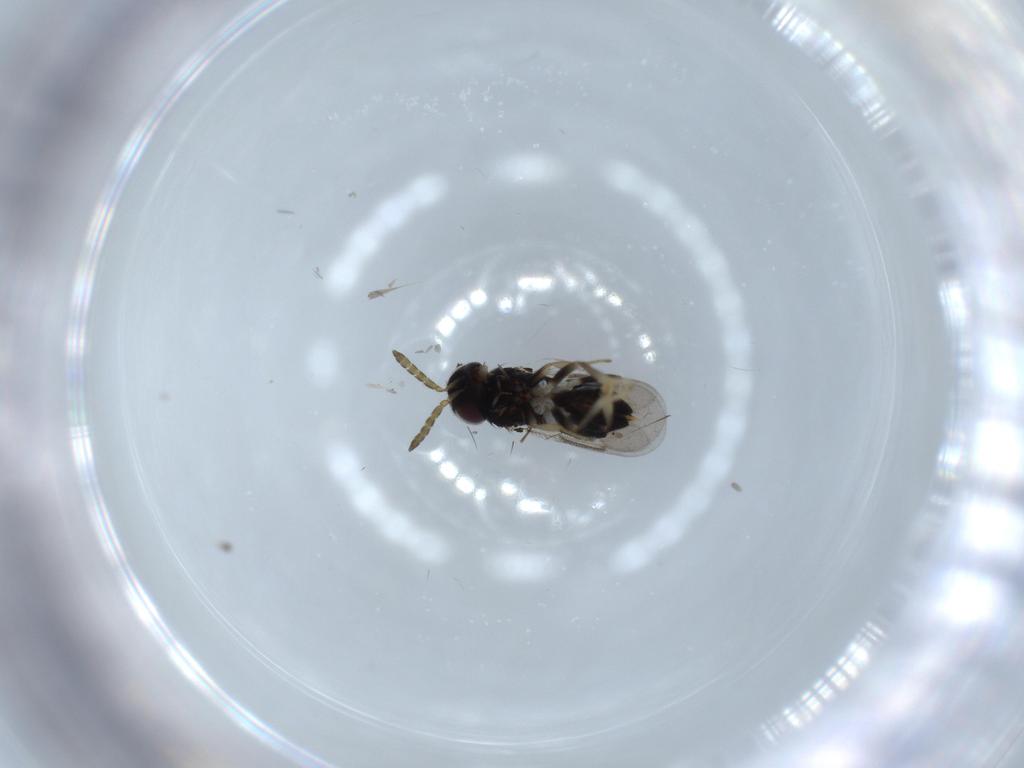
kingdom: Animalia
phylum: Arthropoda
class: Insecta
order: Hymenoptera
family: Aphelinidae
